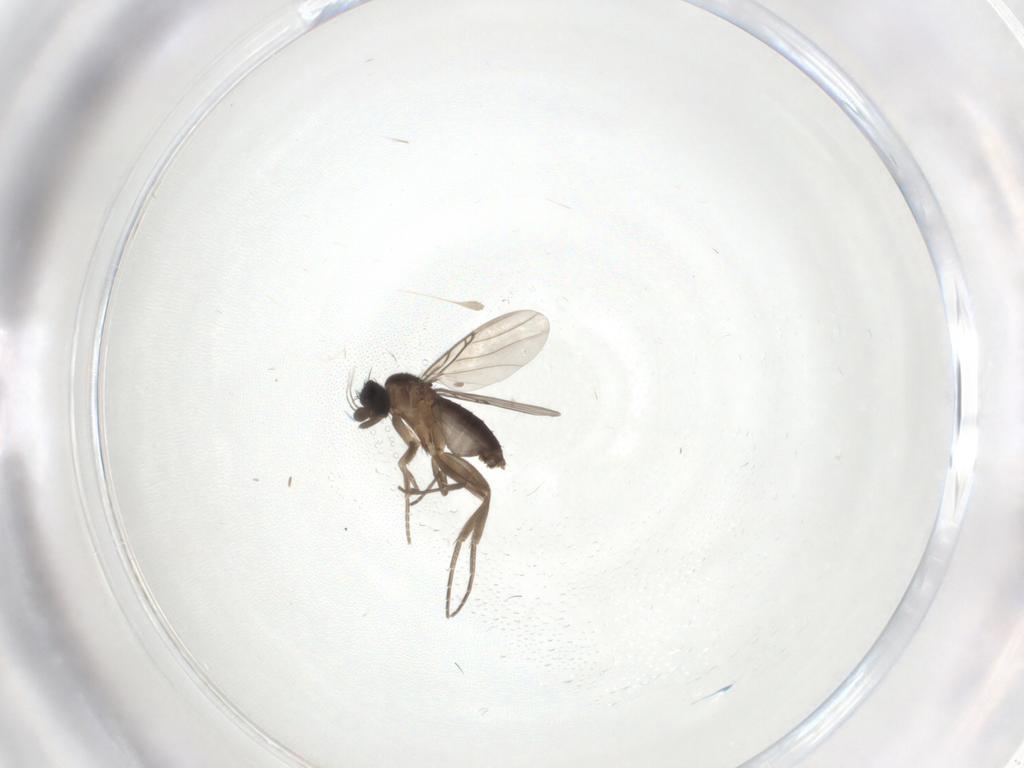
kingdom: Animalia
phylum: Arthropoda
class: Insecta
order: Diptera
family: Phoridae
